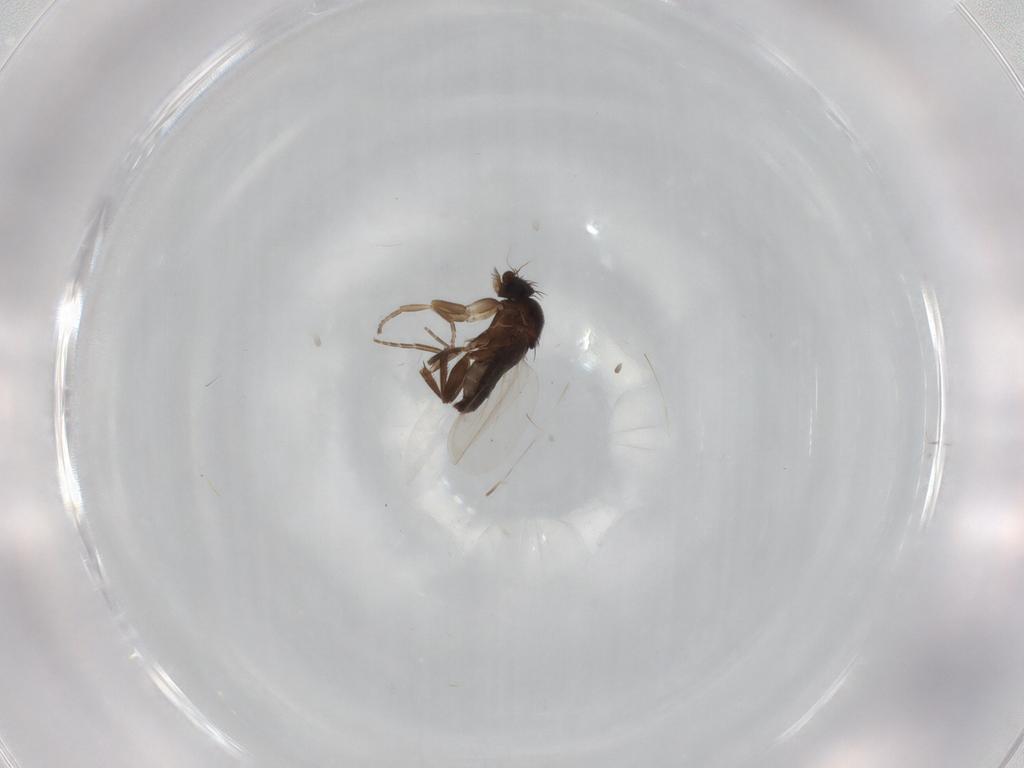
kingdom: Animalia
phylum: Arthropoda
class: Insecta
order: Diptera
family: Phoridae
